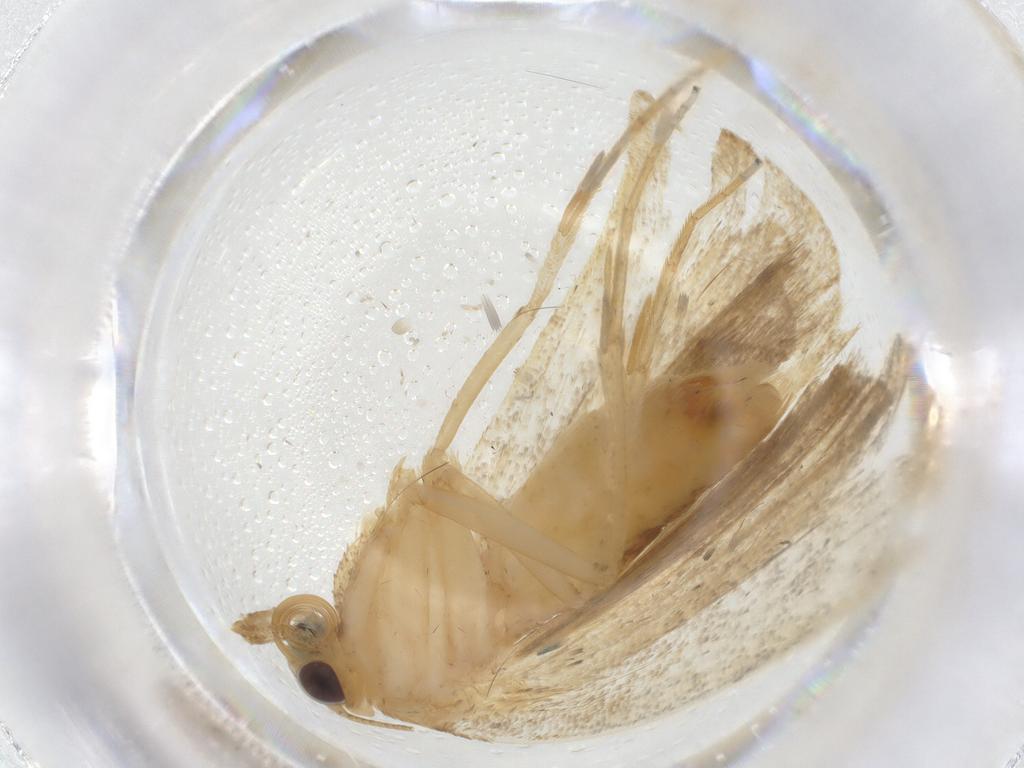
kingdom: Animalia
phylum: Arthropoda
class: Insecta
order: Lepidoptera
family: Erebidae
